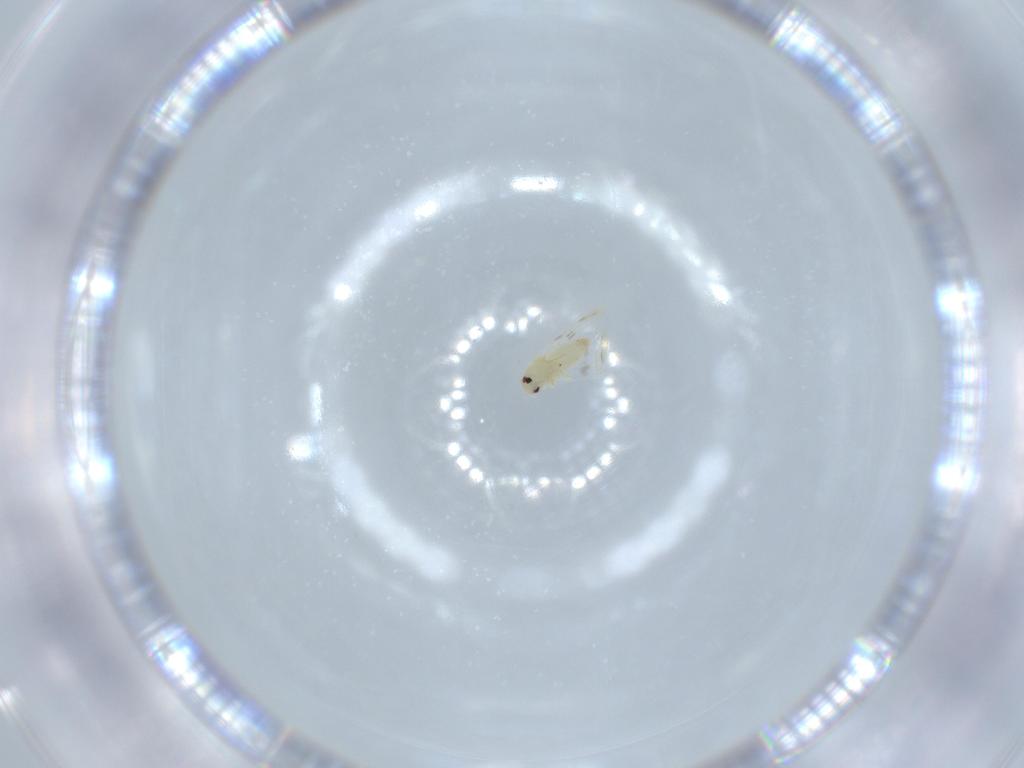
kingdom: Animalia
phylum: Arthropoda
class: Insecta
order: Hemiptera
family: Aleyrodidae
